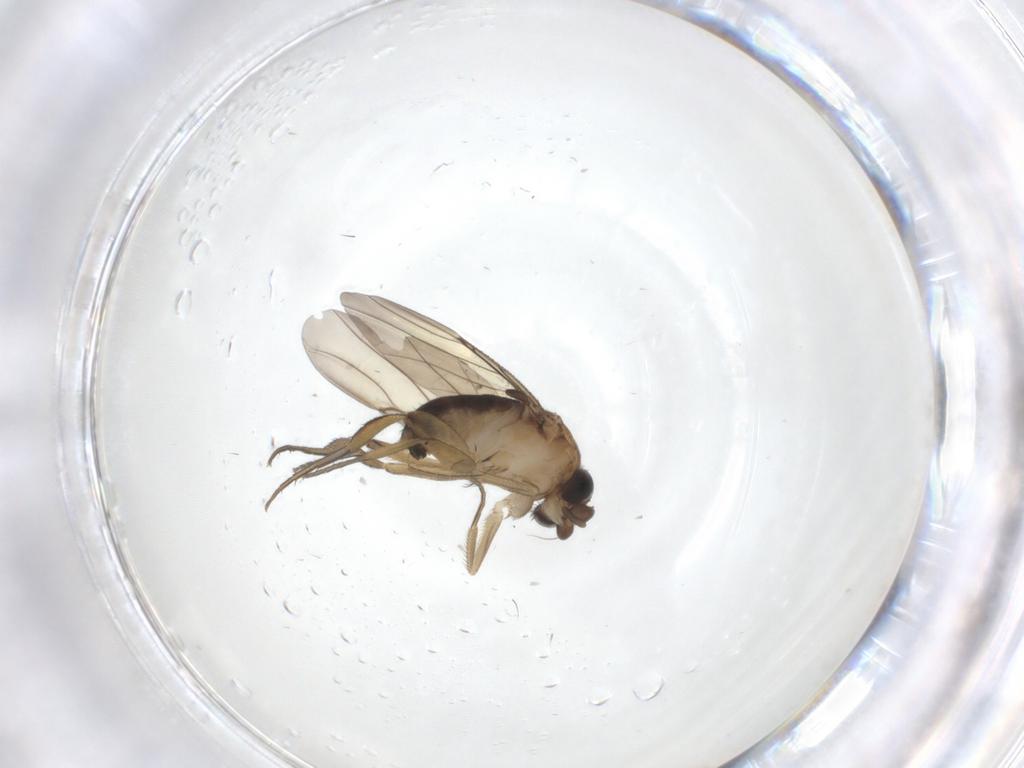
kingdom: Animalia
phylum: Arthropoda
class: Insecta
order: Diptera
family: Phoridae
